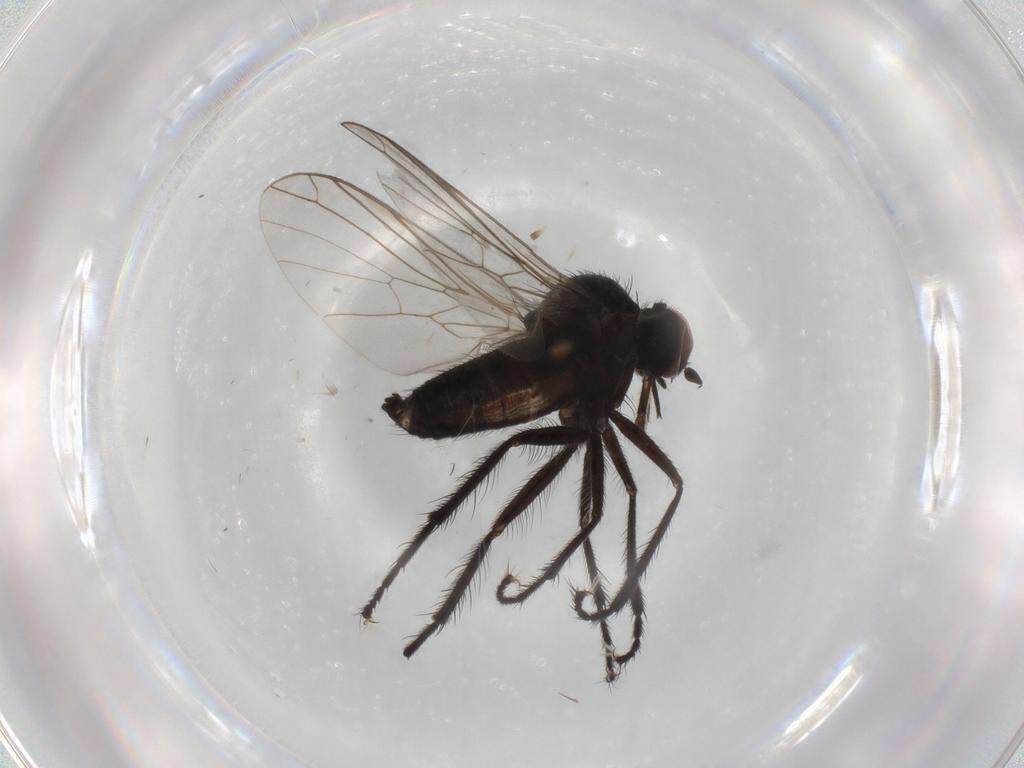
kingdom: Animalia
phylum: Arthropoda
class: Insecta
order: Diptera
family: Empididae
